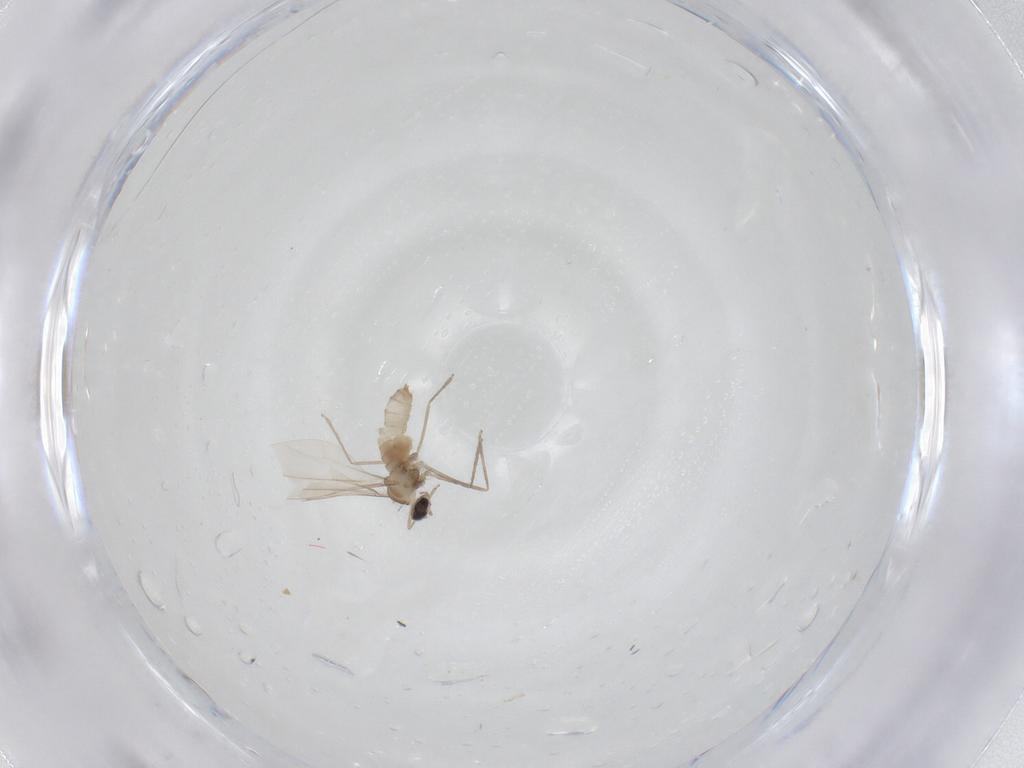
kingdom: Animalia
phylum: Arthropoda
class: Insecta
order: Diptera
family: Cecidomyiidae
